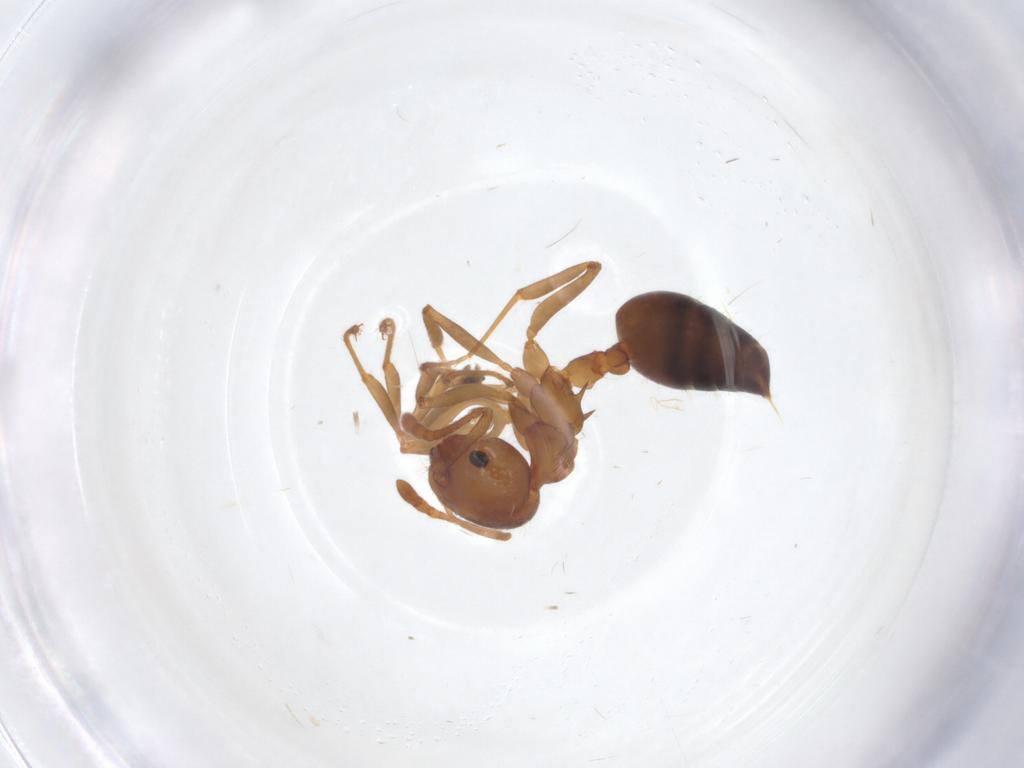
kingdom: Animalia
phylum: Arthropoda
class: Insecta
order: Hymenoptera
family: Formicidae
